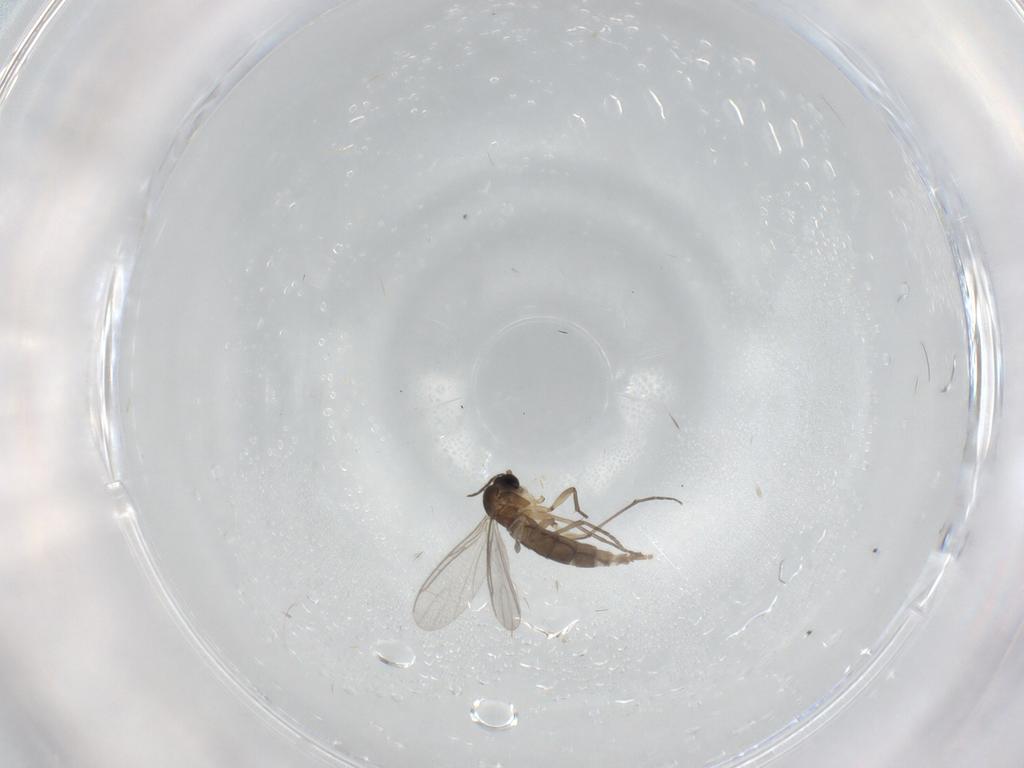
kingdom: Animalia
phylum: Arthropoda
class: Insecta
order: Diptera
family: Sciaridae
